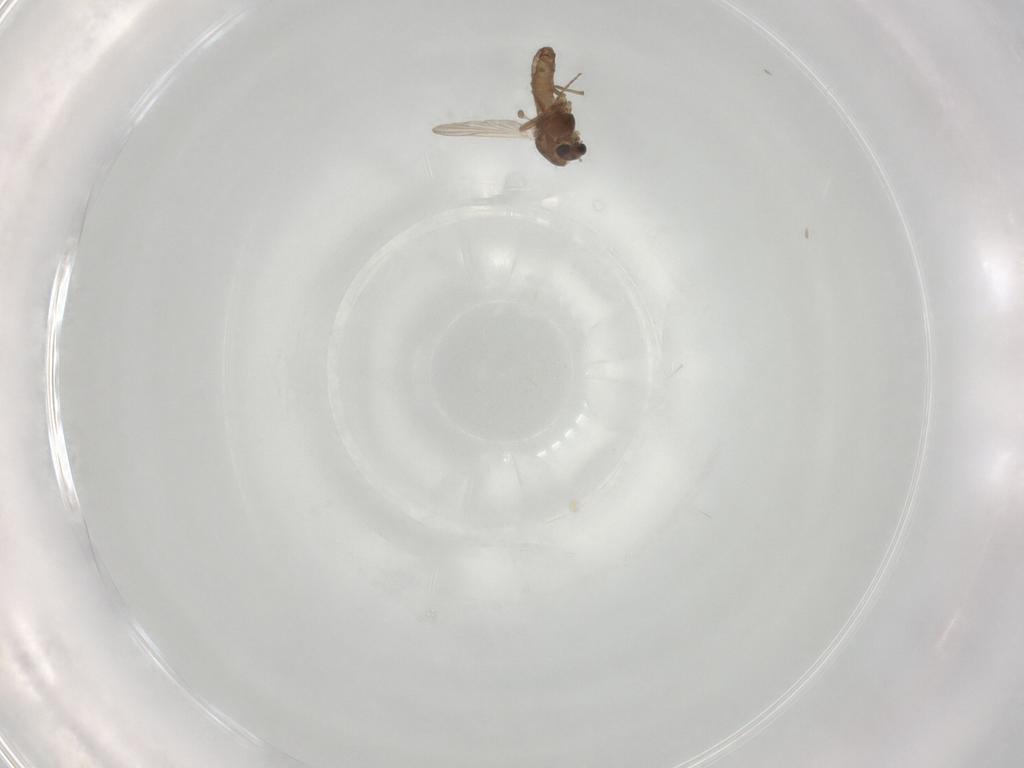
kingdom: Animalia
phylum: Arthropoda
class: Insecta
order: Diptera
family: Chironomidae
